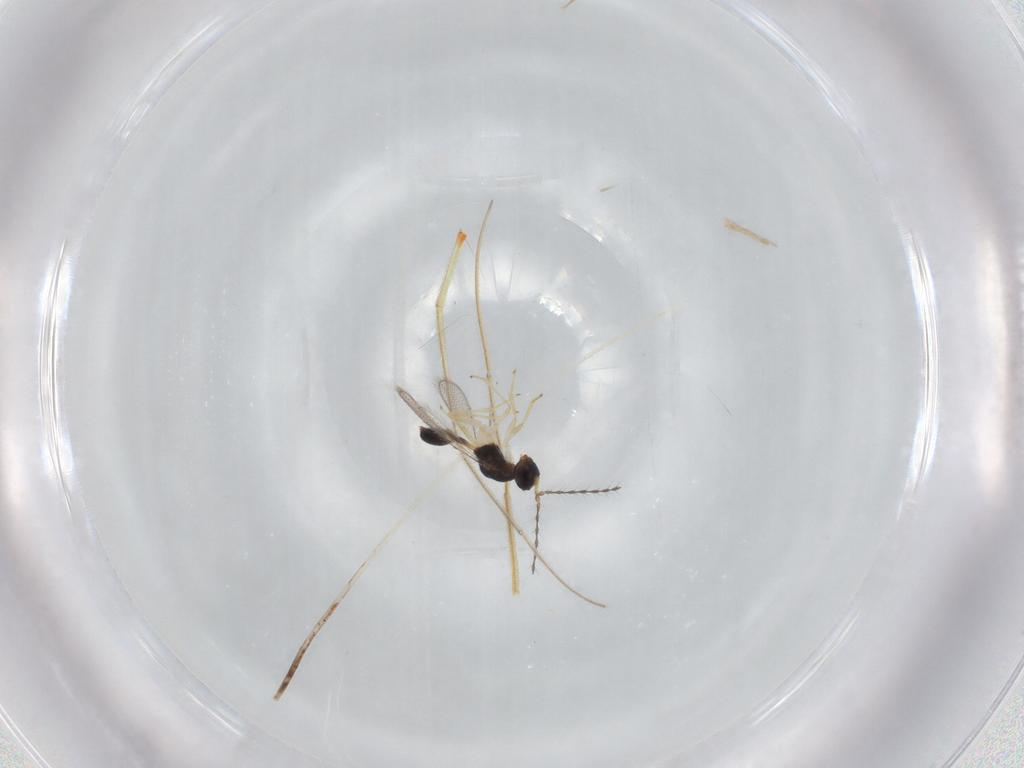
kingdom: Animalia
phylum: Arthropoda
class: Insecta
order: Hymenoptera
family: Diparidae
